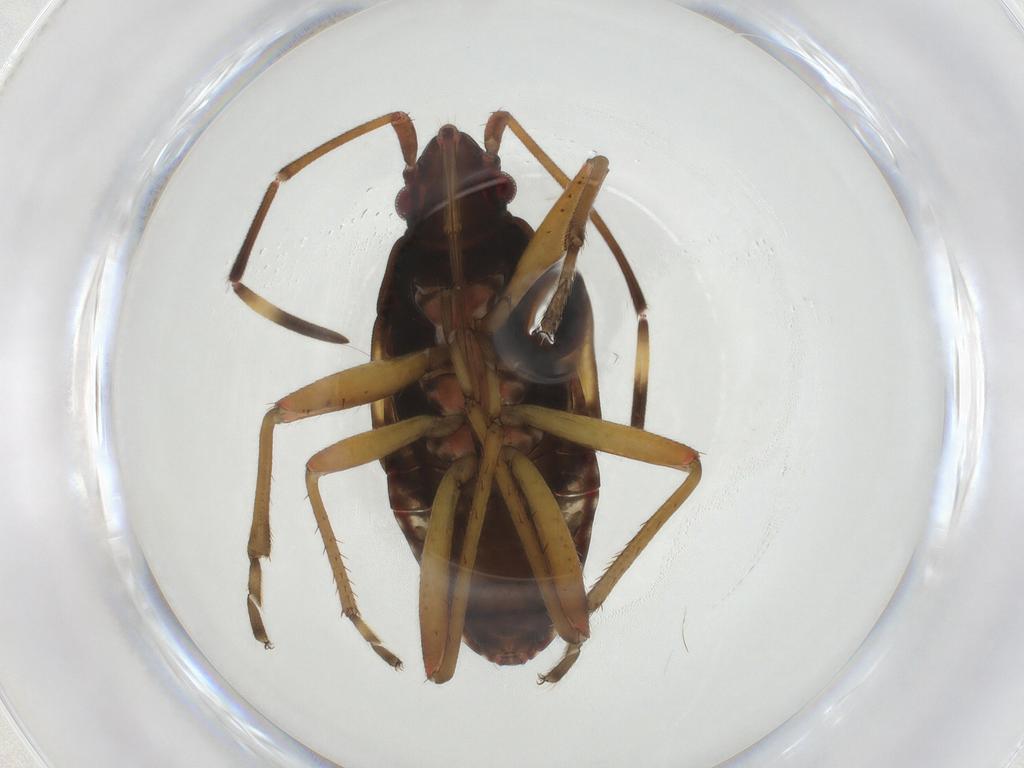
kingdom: Animalia
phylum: Arthropoda
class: Insecta
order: Hemiptera
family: Rhyparochromidae
